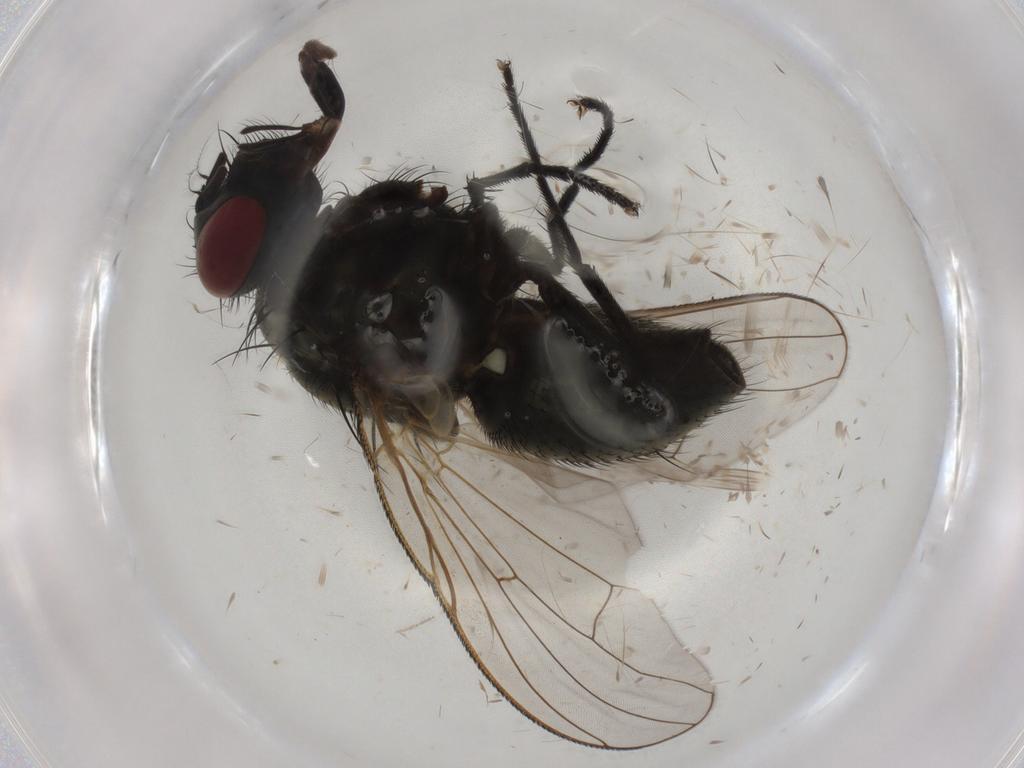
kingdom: Animalia
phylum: Arthropoda
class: Insecta
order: Diptera
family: Muscidae
